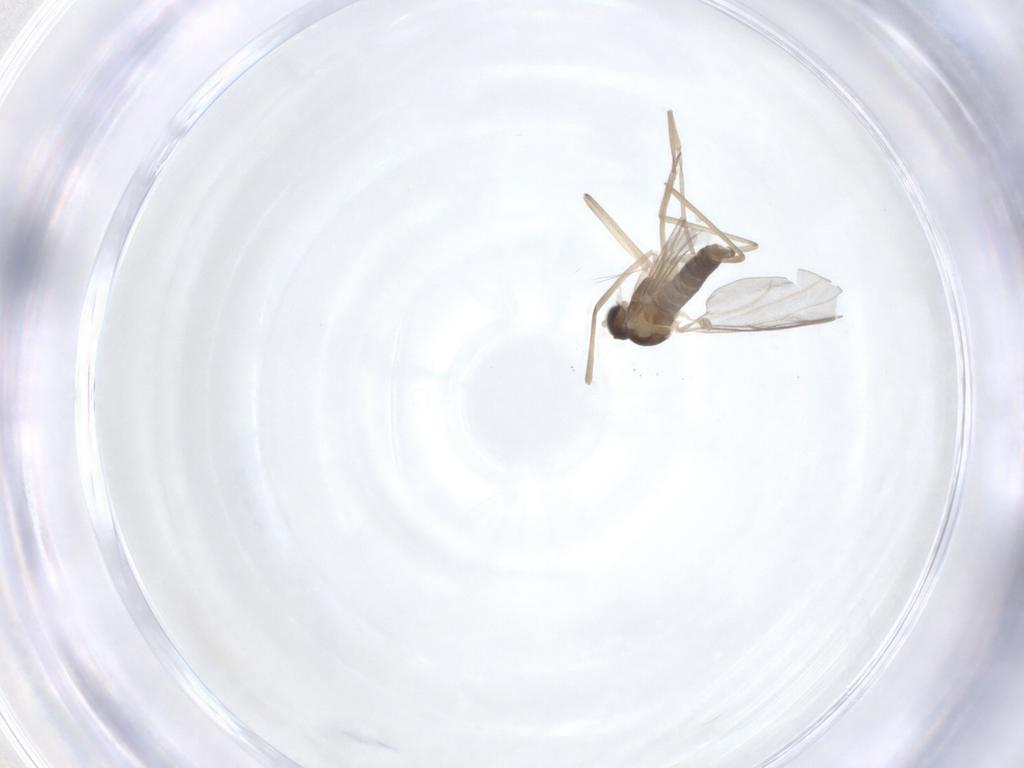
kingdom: Animalia
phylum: Arthropoda
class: Insecta
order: Diptera
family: Cecidomyiidae
